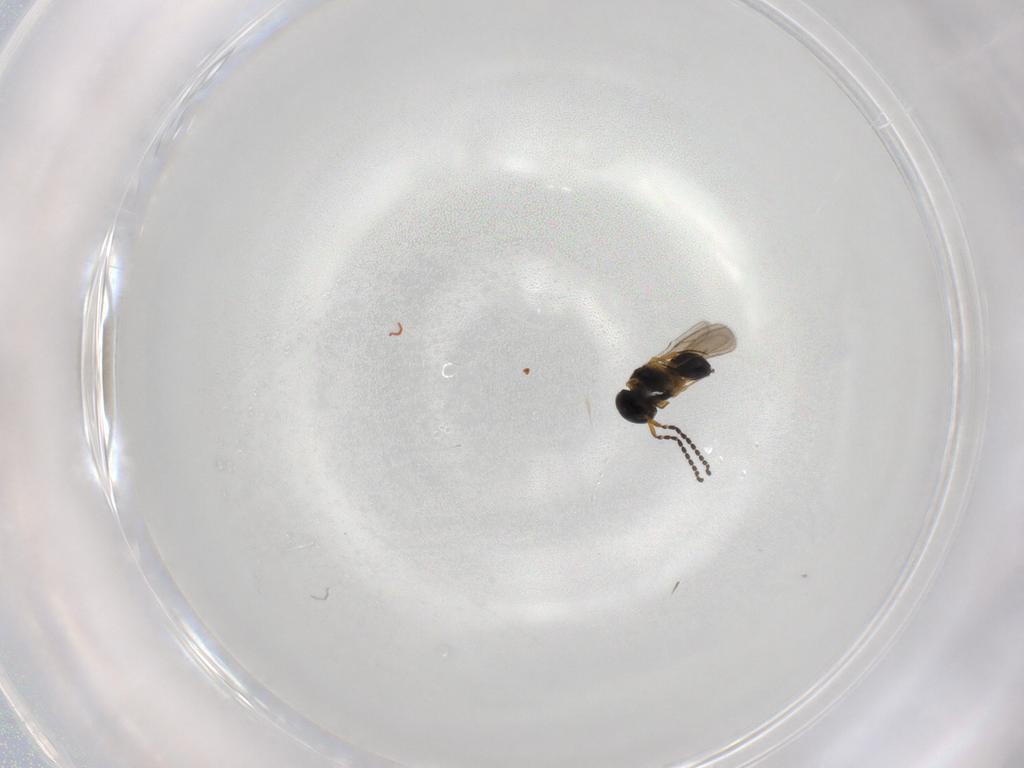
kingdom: Animalia
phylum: Arthropoda
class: Insecta
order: Hymenoptera
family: Scelionidae
